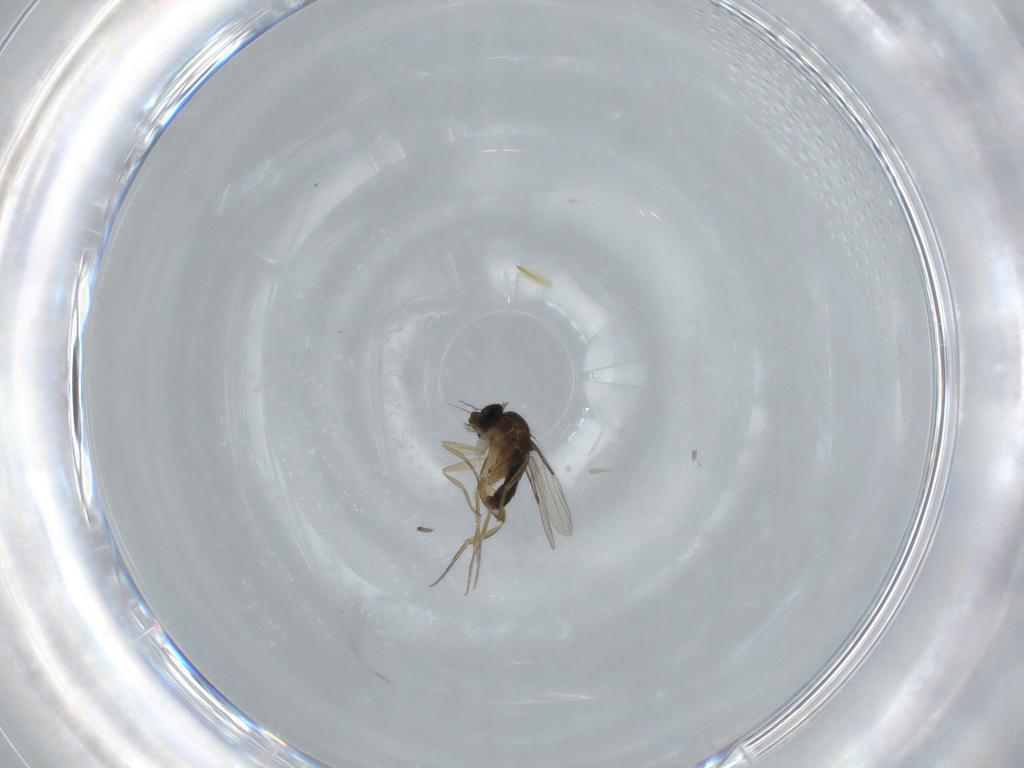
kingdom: Animalia
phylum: Arthropoda
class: Insecta
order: Diptera
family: Sciaridae
